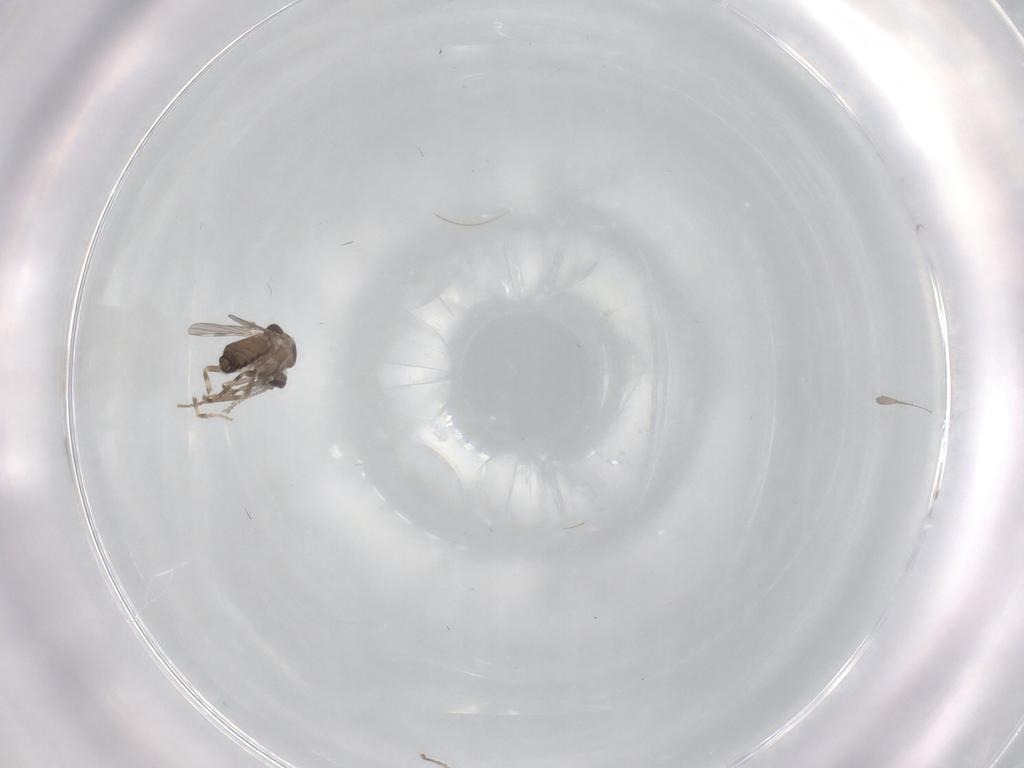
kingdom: Animalia
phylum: Arthropoda
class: Insecta
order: Diptera
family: Ceratopogonidae
